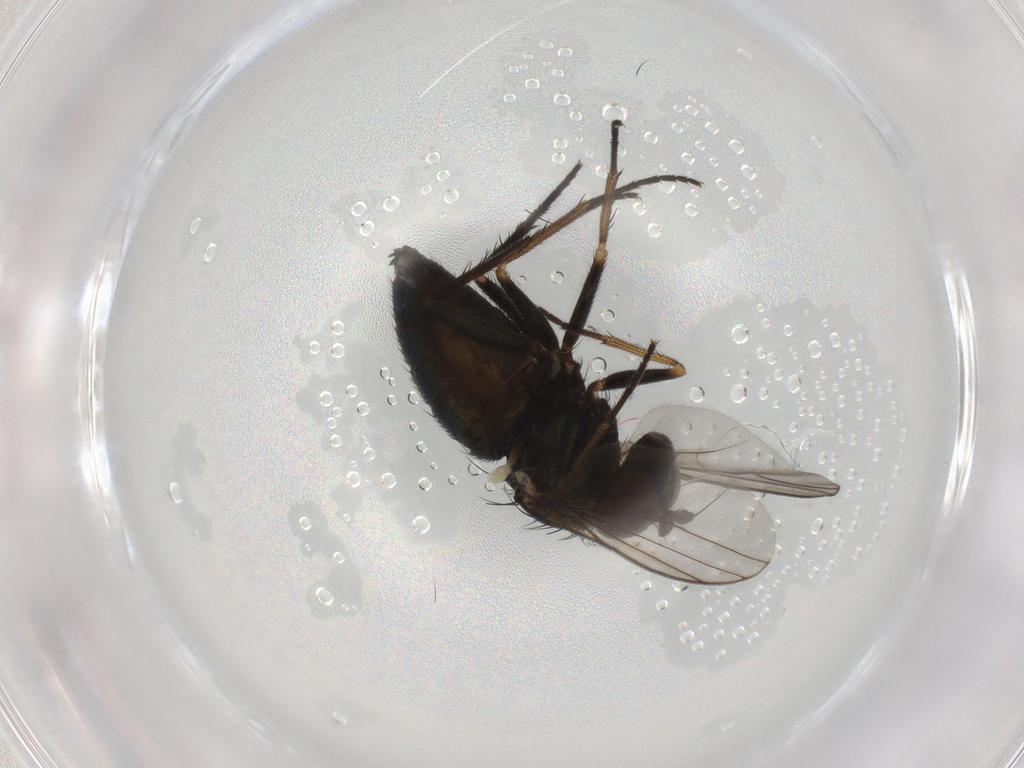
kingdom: Animalia
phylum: Arthropoda
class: Insecta
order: Diptera
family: Dolichopodidae
